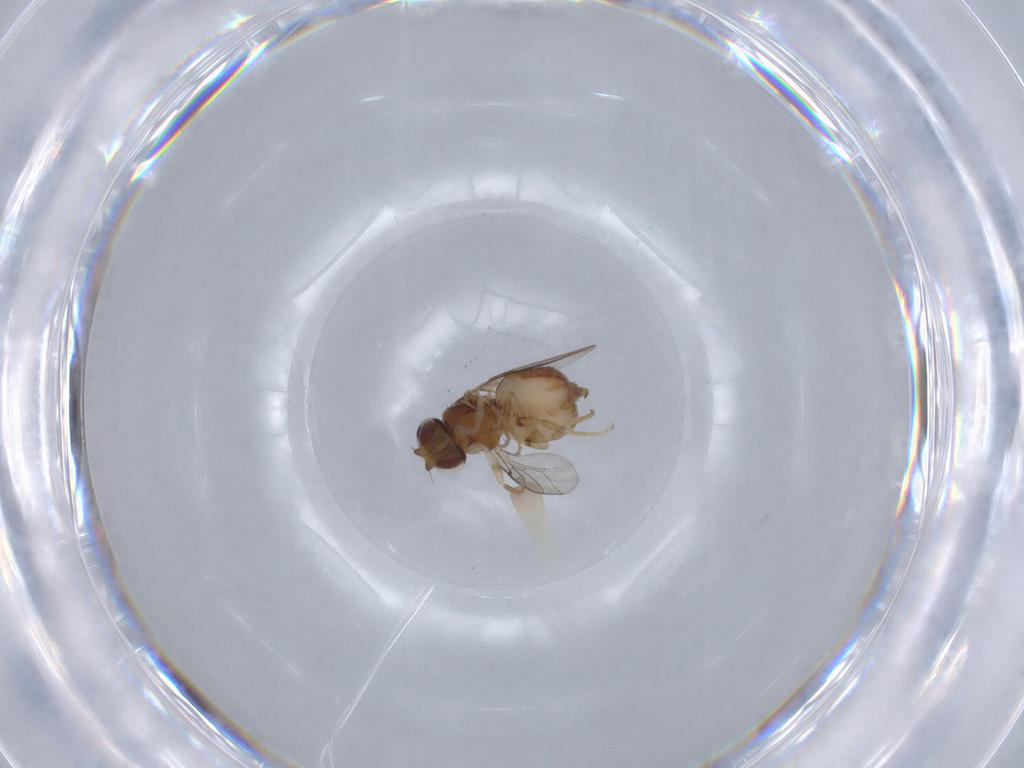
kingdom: Animalia
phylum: Arthropoda
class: Insecta
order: Diptera
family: Chloropidae
